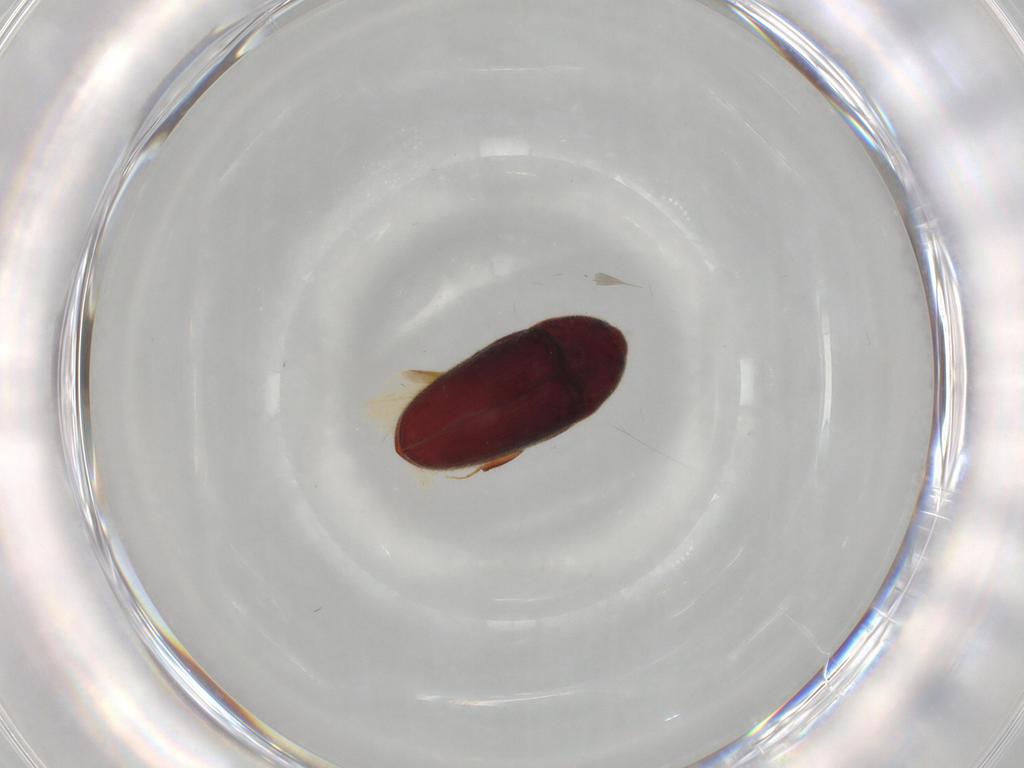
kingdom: Animalia
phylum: Arthropoda
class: Insecta
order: Coleoptera
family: Throscidae
